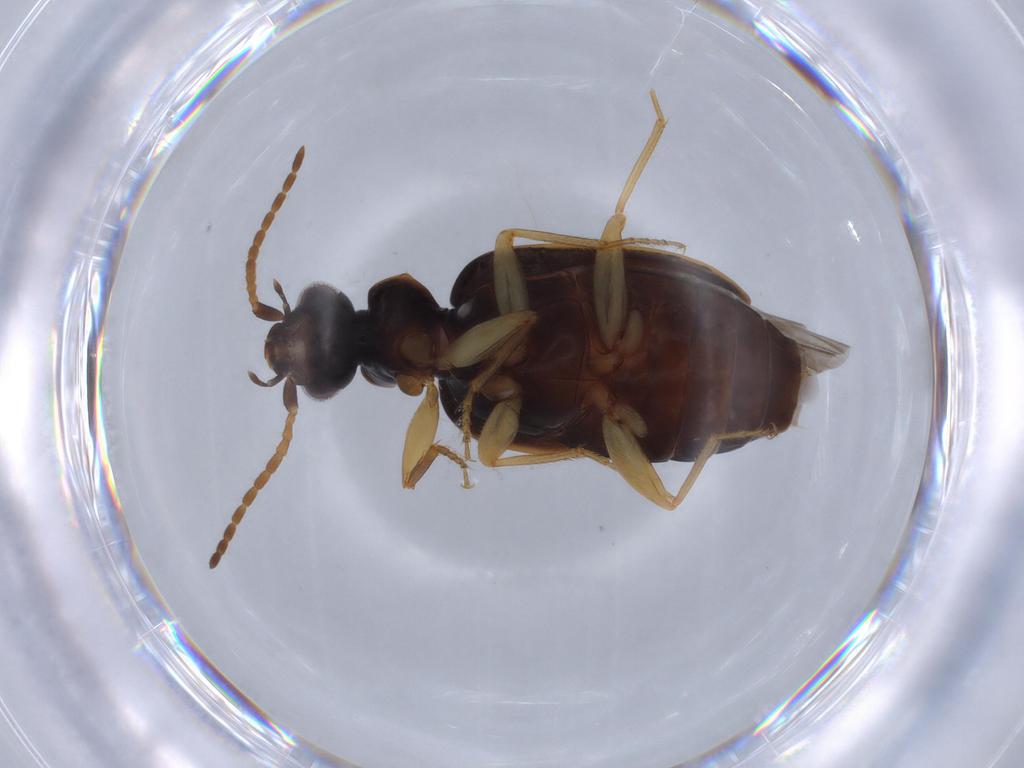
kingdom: Animalia
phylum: Arthropoda
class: Insecta
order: Coleoptera
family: Carabidae
